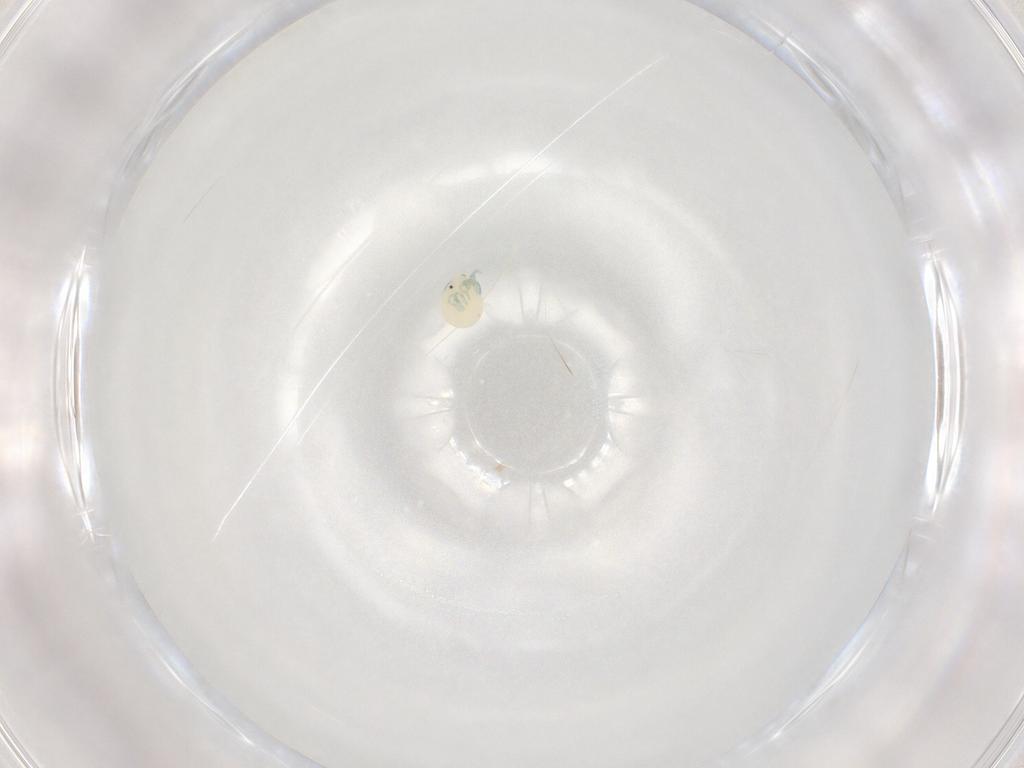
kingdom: Animalia
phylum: Arthropoda
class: Arachnida
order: Trombidiformes
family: Arrenuridae
